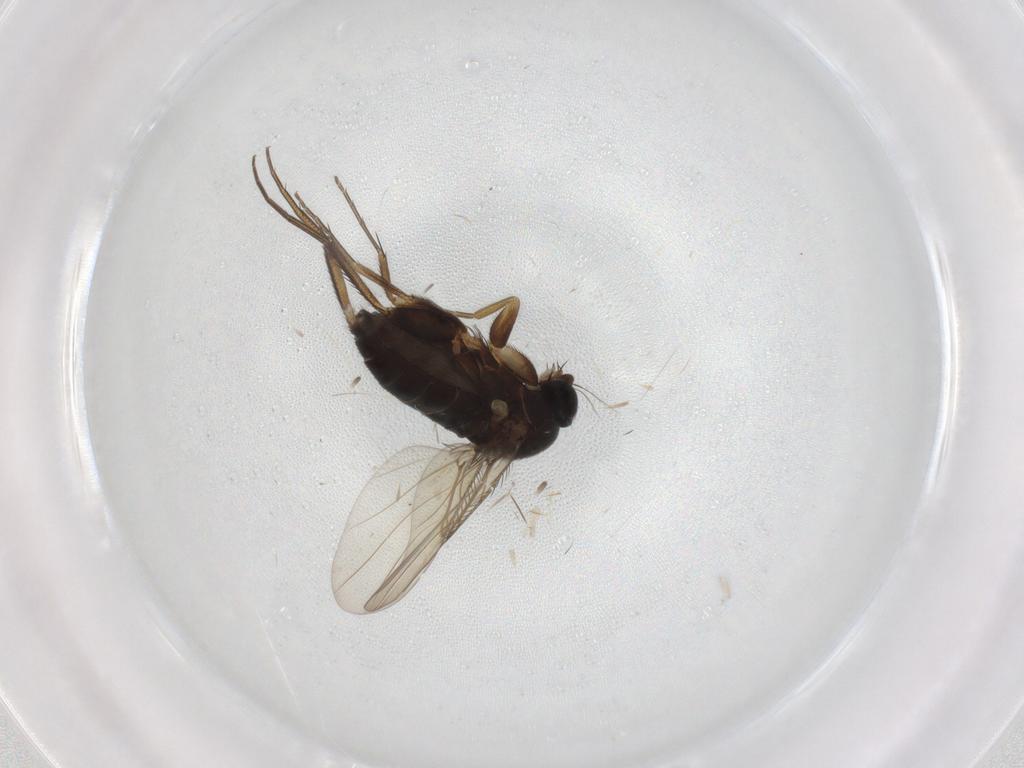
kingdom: Animalia
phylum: Arthropoda
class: Insecta
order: Diptera
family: Phoridae
